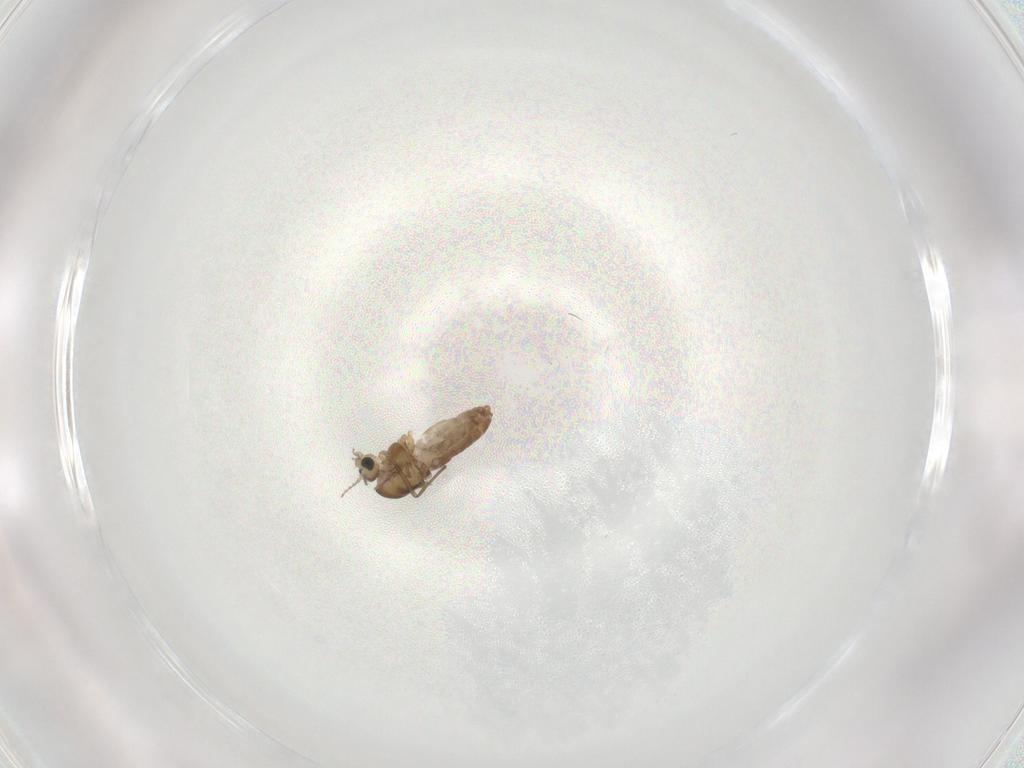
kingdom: Animalia
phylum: Arthropoda
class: Insecta
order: Diptera
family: Chironomidae
